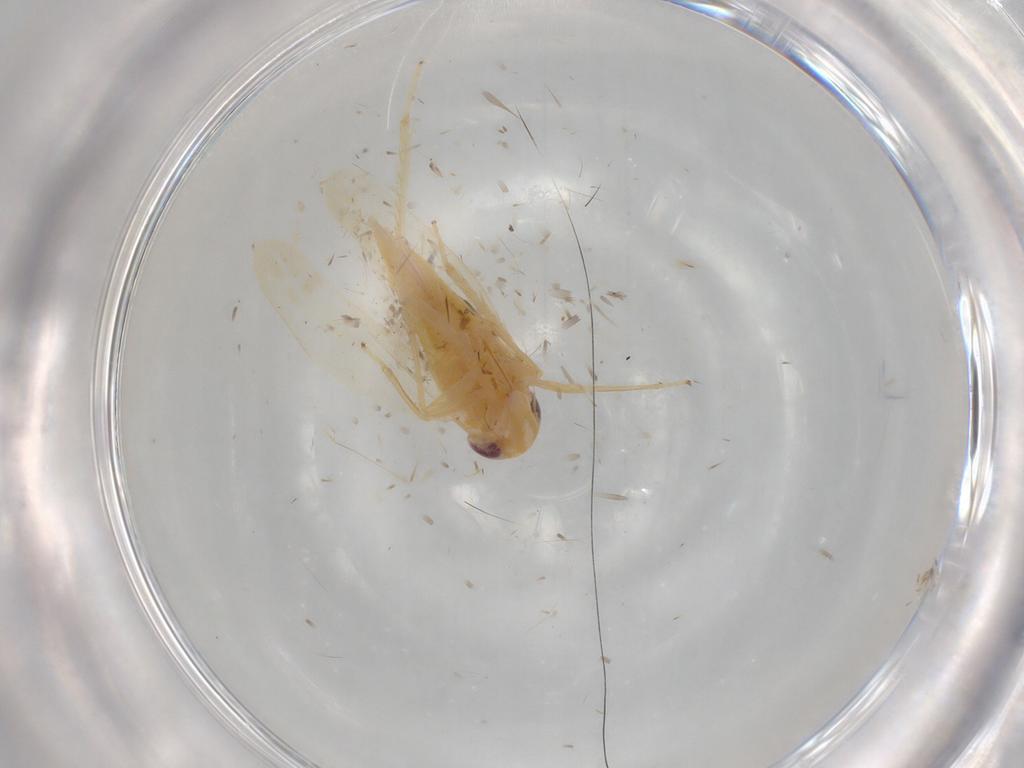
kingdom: Animalia
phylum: Arthropoda
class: Insecta
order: Hemiptera
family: Cicadellidae
